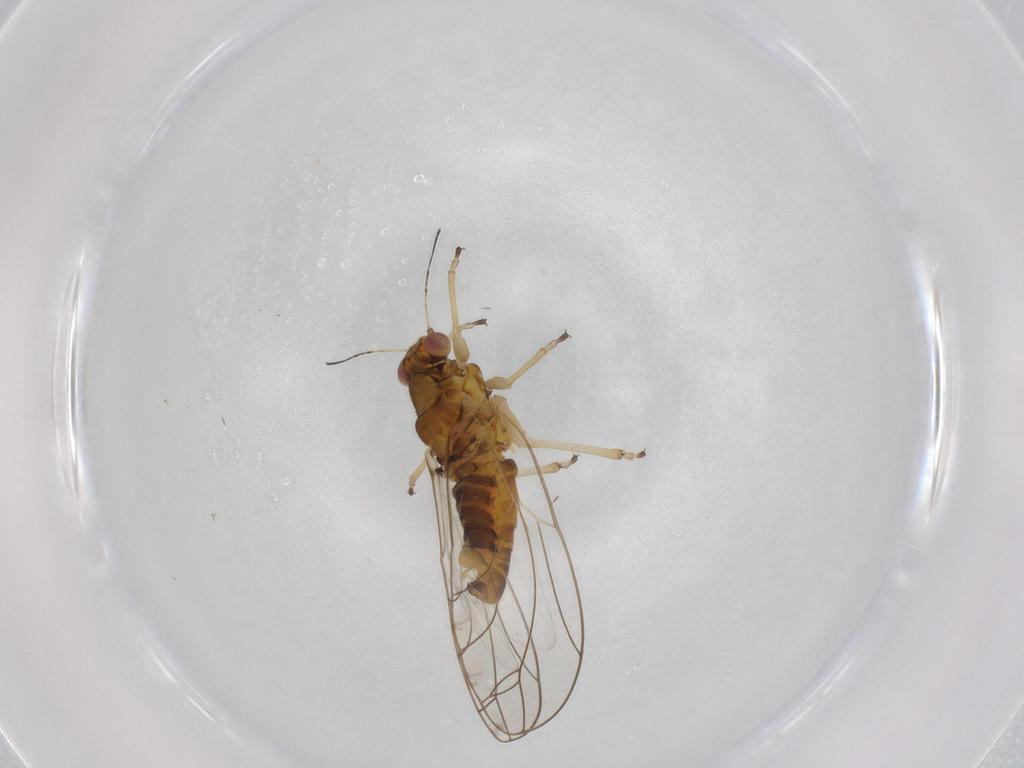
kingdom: Animalia
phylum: Arthropoda
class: Insecta
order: Hemiptera
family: Triozidae
